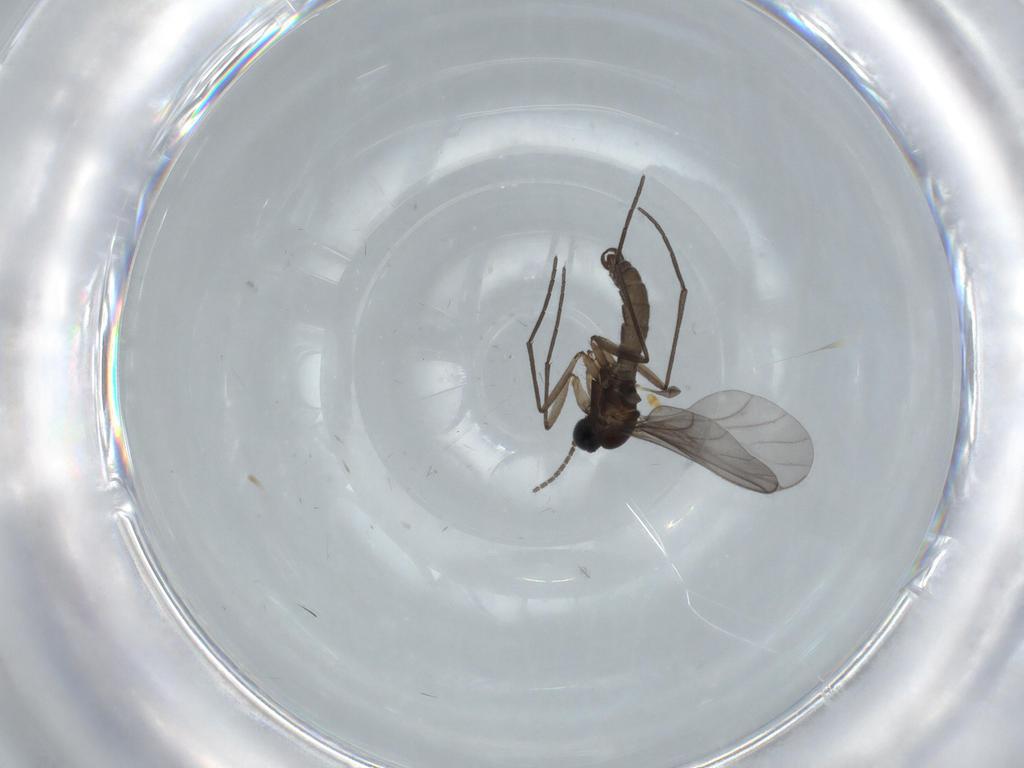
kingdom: Animalia
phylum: Arthropoda
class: Insecta
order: Diptera
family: Sciaridae
